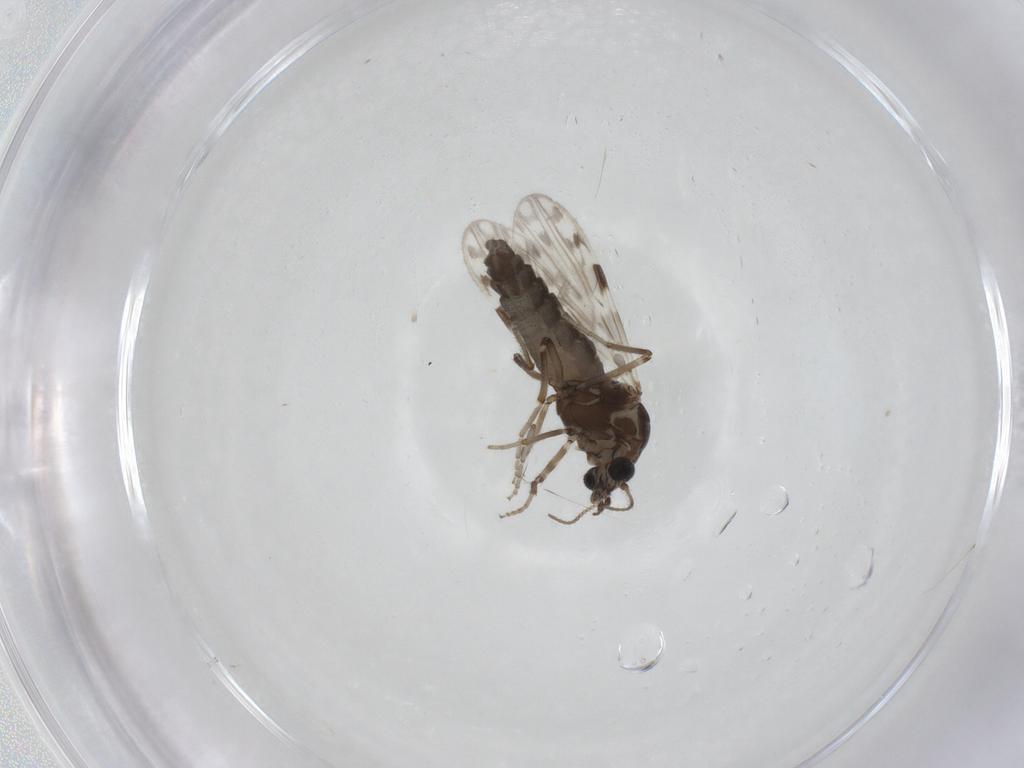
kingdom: Animalia
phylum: Arthropoda
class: Insecta
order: Diptera
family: Ceratopogonidae
